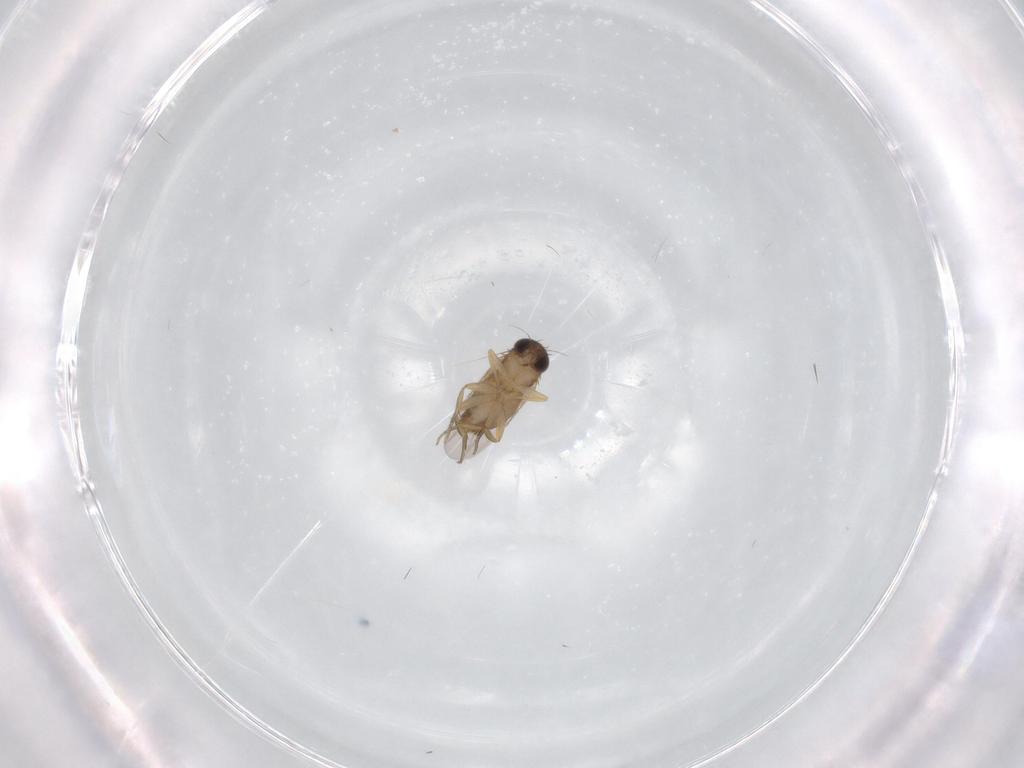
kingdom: Animalia
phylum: Arthropoda
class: Insecta
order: Diptera
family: Phoridae
